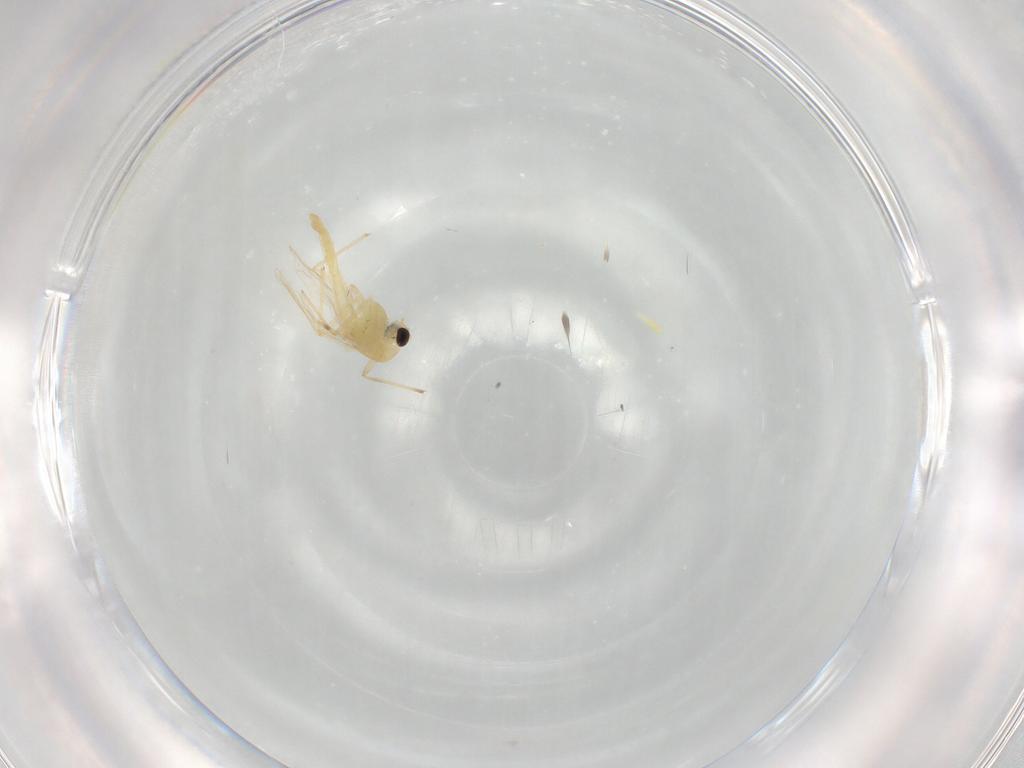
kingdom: Animalia
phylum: Arthropoda
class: Insecta
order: Diptera
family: Chironomidae
